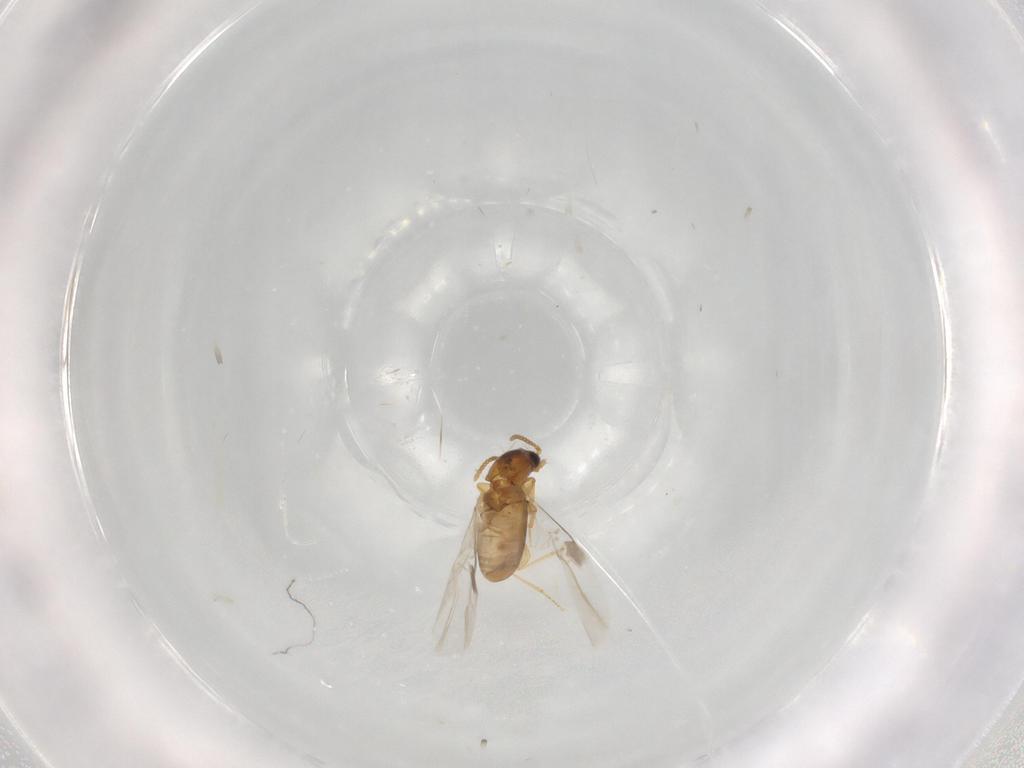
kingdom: Animalia
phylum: Arthropoda
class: Insecta
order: Coleoptera
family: Carabidae
